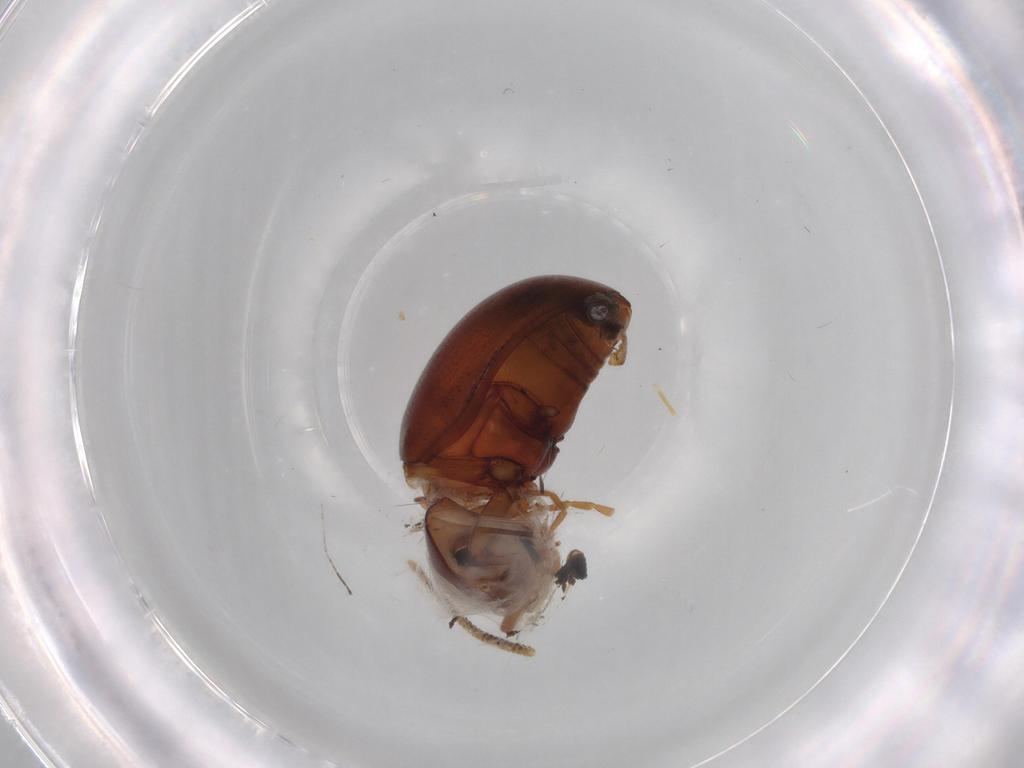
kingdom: Animalia
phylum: Arthropoda
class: Insecta
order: Coleoptera
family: Chrysomelidae
